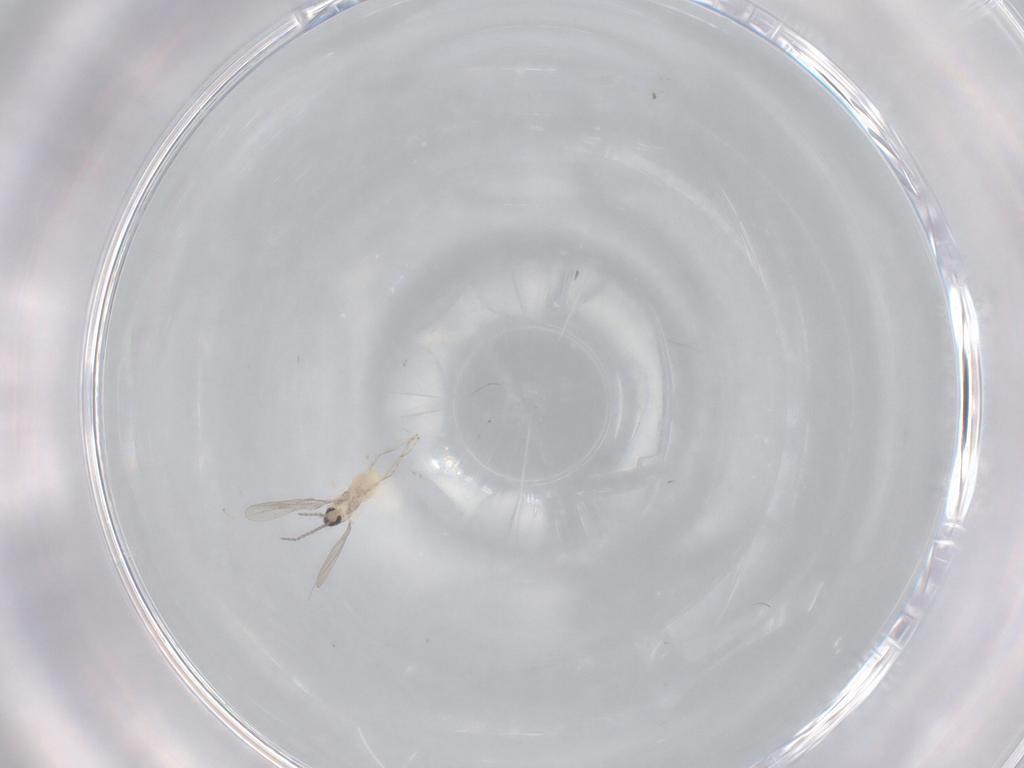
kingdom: Animalia
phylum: Arthropoda
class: Insecta
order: Diptera
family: Cecidomyiidae
